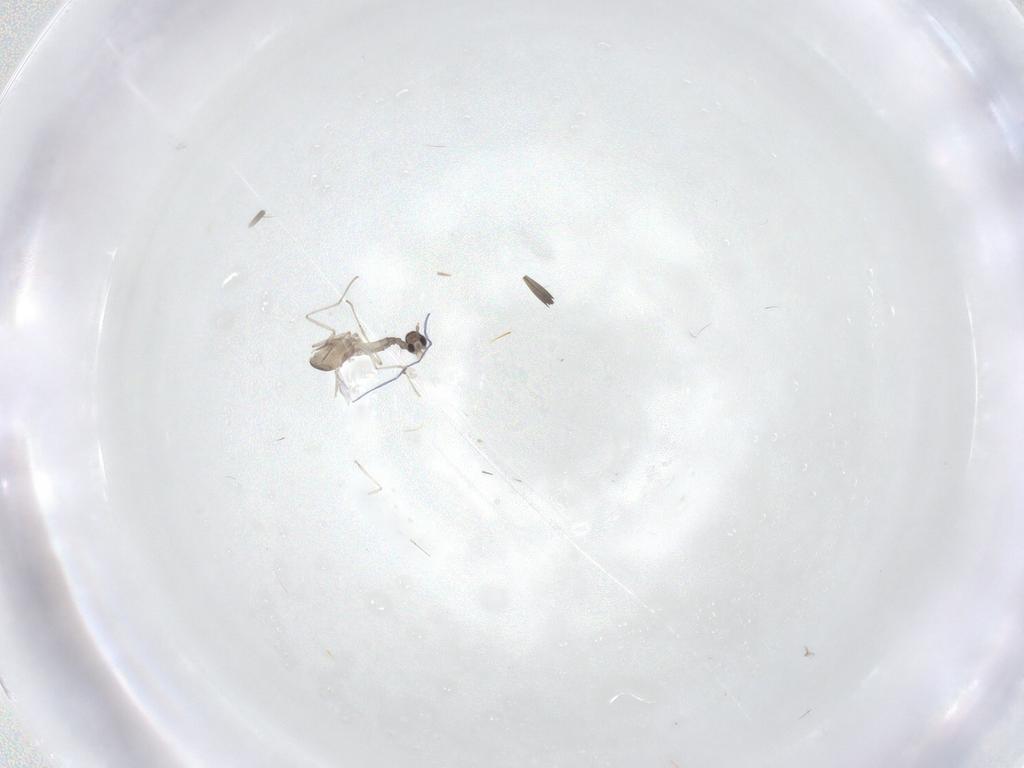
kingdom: Animalia
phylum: Arthropoda
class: Insecta
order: Diptera
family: Cecidomyiidae
